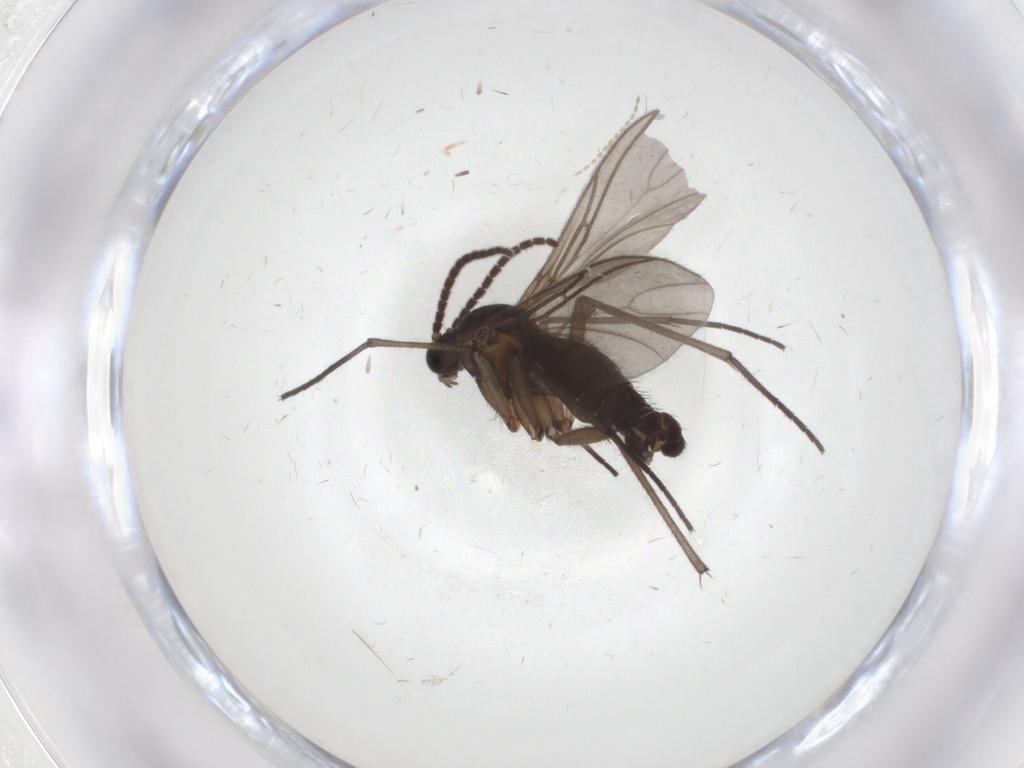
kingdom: Animalia
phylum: Arthropoda
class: Insecta
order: Diptera
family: Sciaridae
